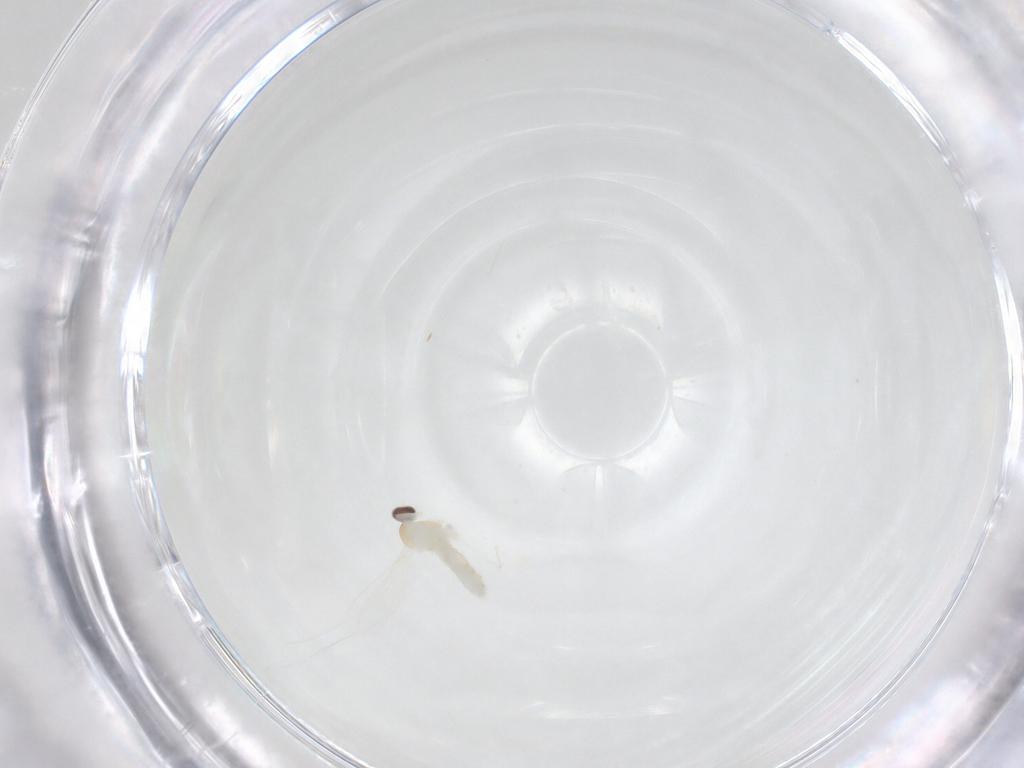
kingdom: Animalia
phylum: Arthropoda
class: Insecta
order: Diptera
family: Cecidomyiidae
